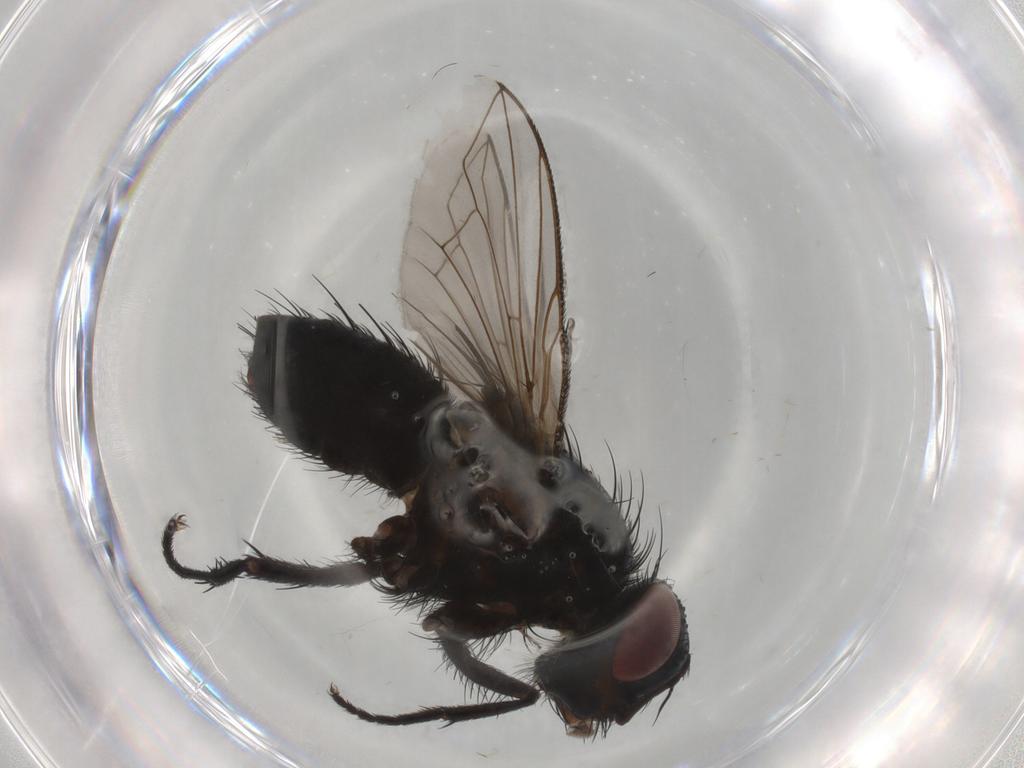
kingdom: Animalia
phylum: Arthropoda
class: Insecta
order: Diptera
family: Tachinidae
